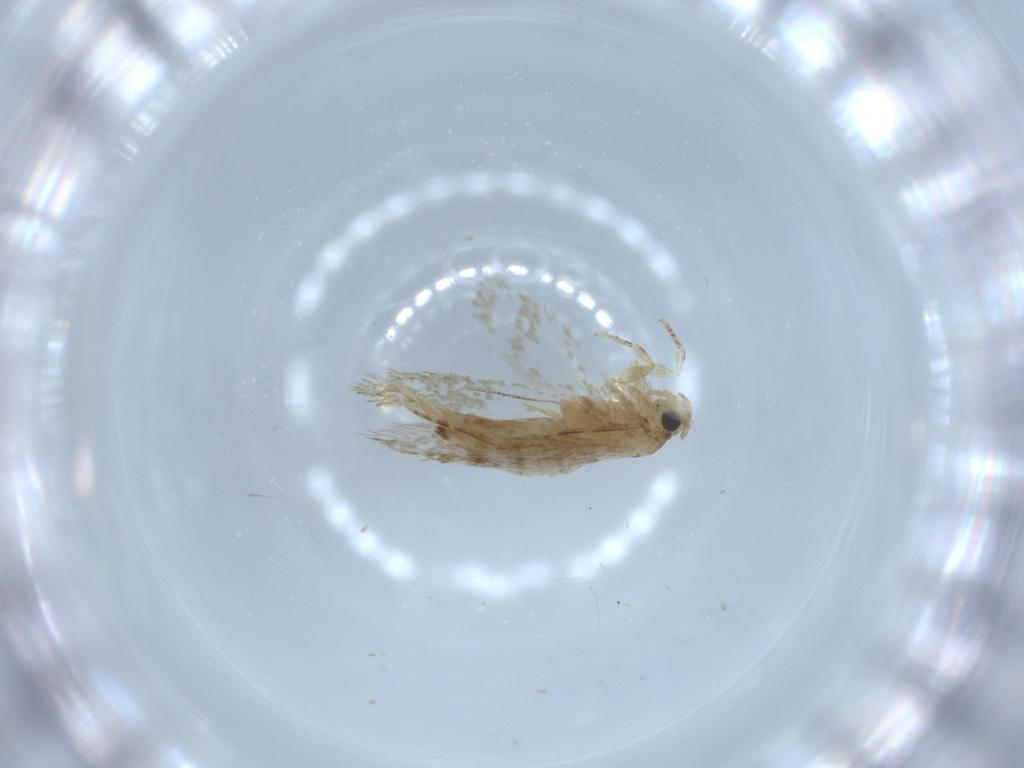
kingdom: Animalia
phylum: Arthropoda
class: Insecta
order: Lepidoptera
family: Tineidae
